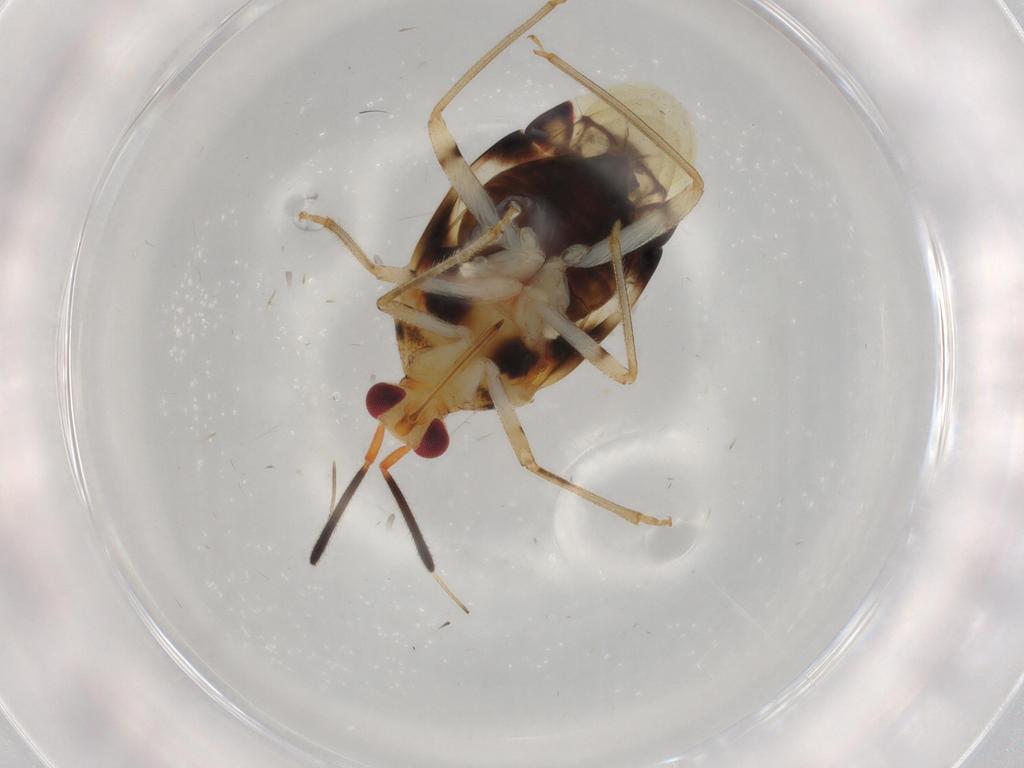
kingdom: Animalia
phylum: Arthropoda
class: Insecta
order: Hemiptera
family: Miridae
